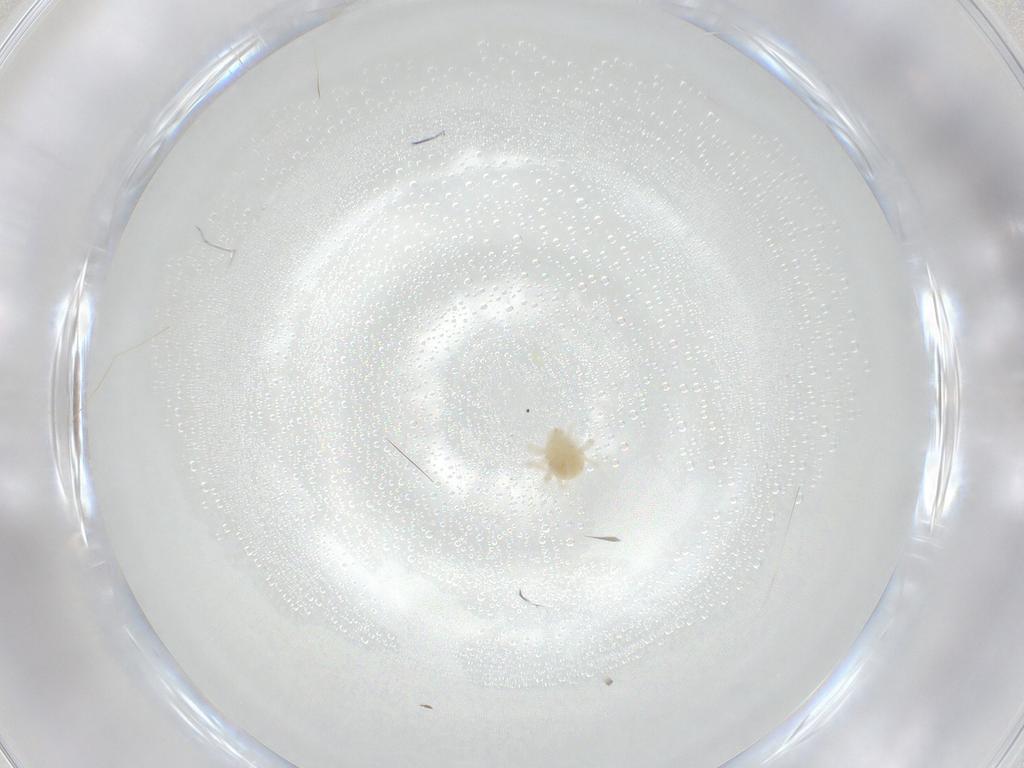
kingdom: Animalia
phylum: Arthropoda
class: Arachnida
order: Trombidiformes
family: Anystidae
